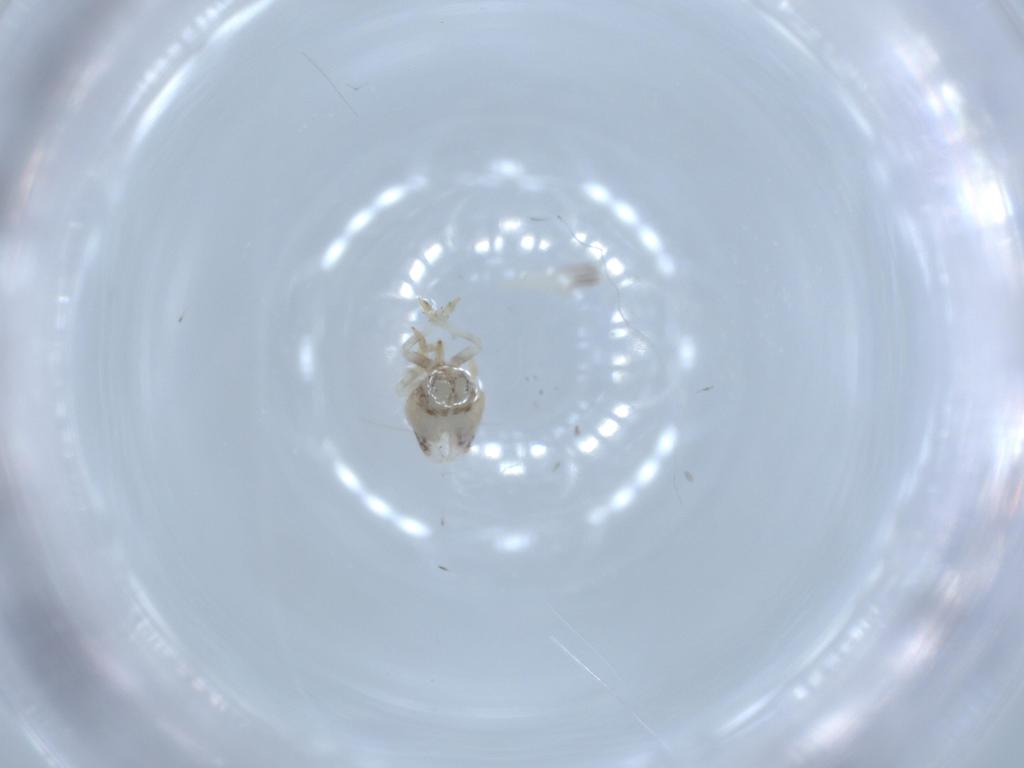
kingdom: Animalia
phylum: Arthropoda
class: Insecta
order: Hemiptera
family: Acanaloniidae
